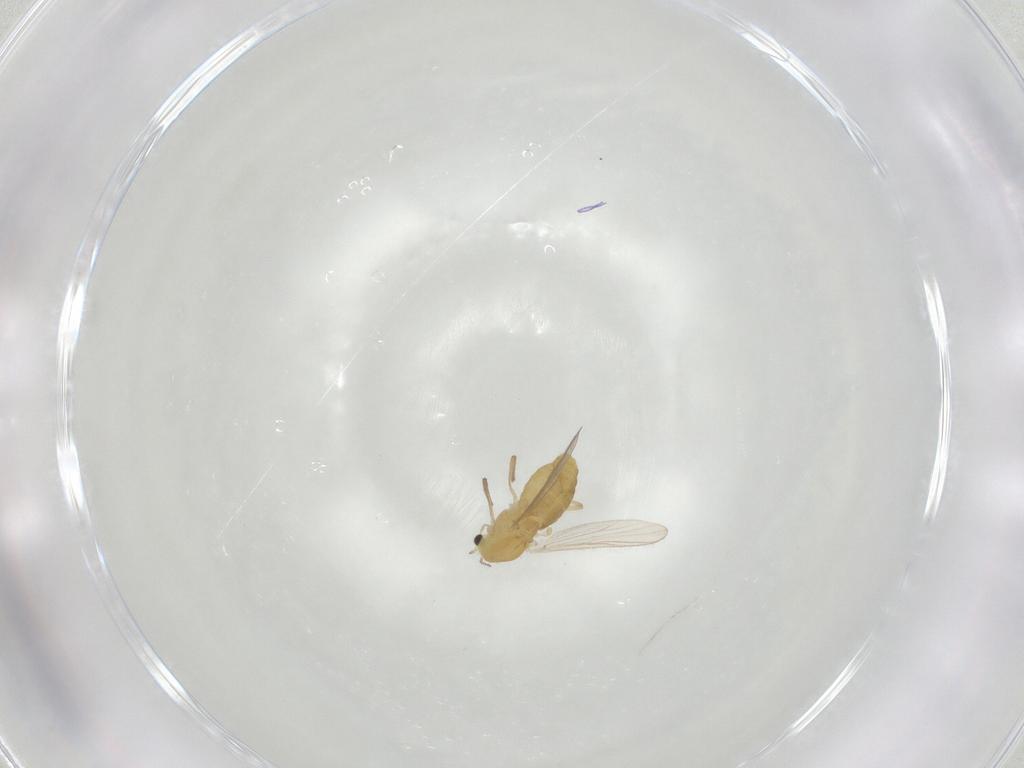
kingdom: Animalia
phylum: Arthropoda
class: Insecta
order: Diptera
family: Chironomidae
